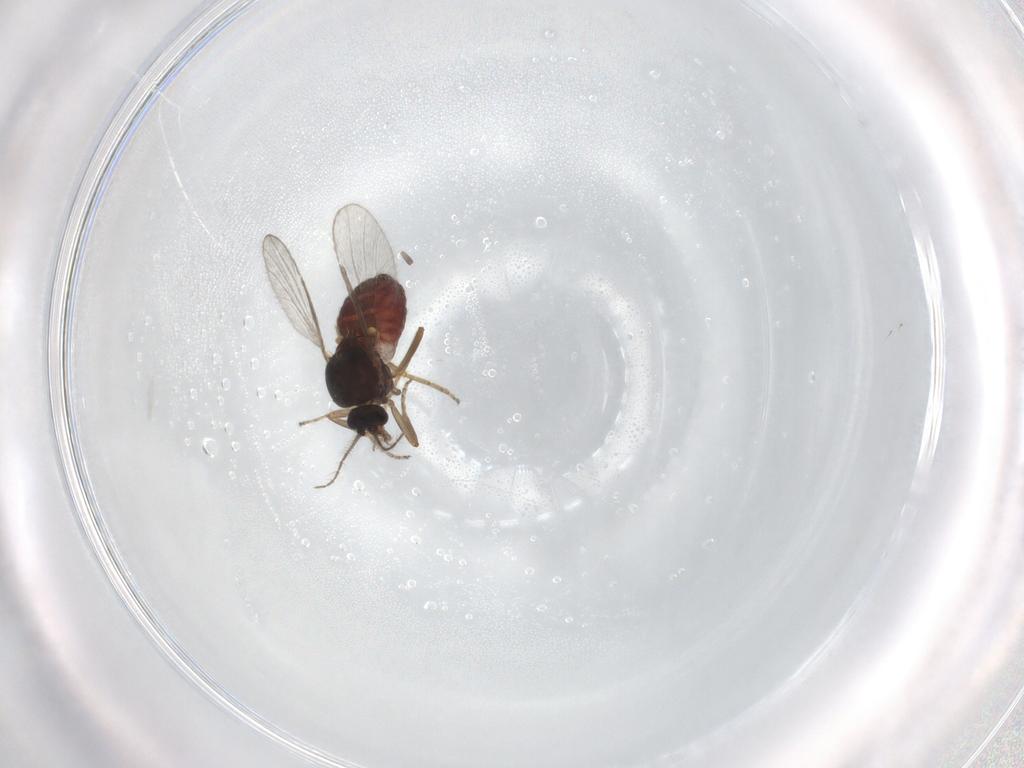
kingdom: Animalia
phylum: Arthropoda
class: Insecta
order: Diptera
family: Ceratopogonidae
